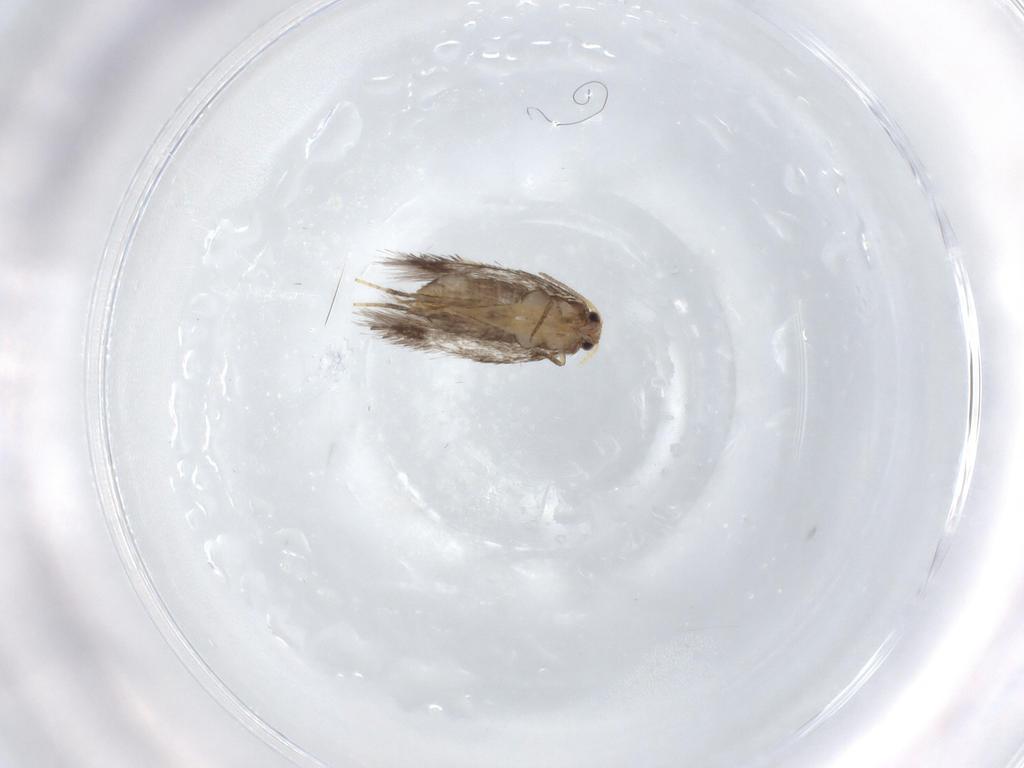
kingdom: Animalia
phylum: Arthropoda
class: Insecta
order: Lepidoptera
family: Nepticulidae
